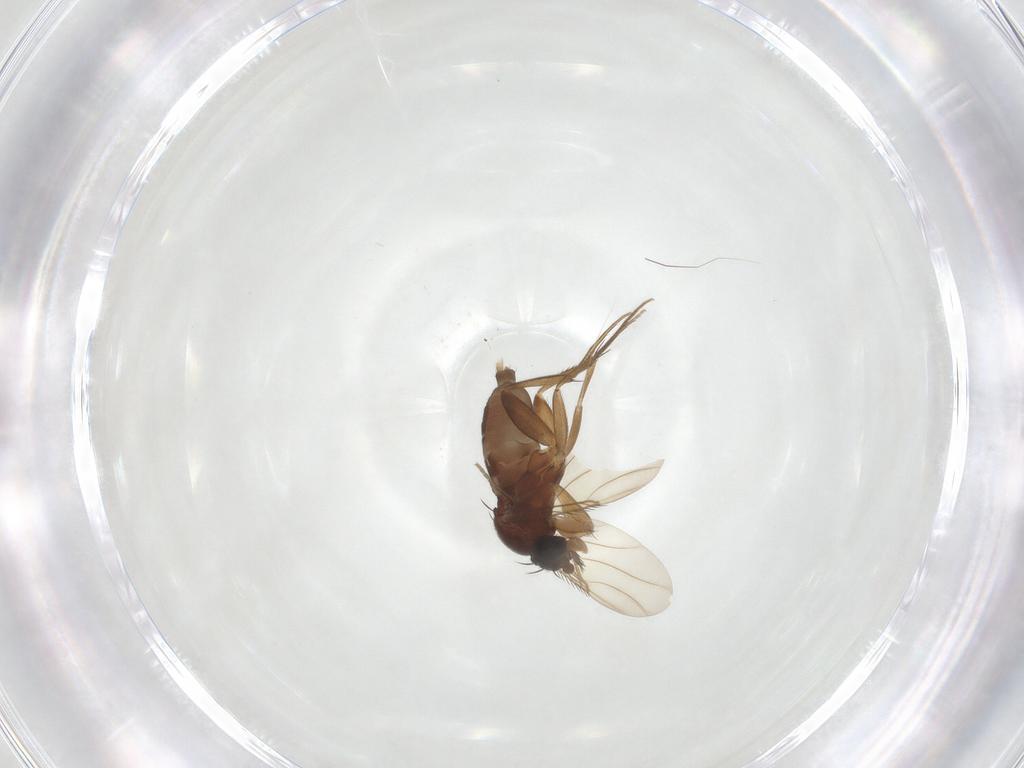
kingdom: Animalia
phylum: Arthropoda
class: Insecta
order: Diptera
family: Phoridae
